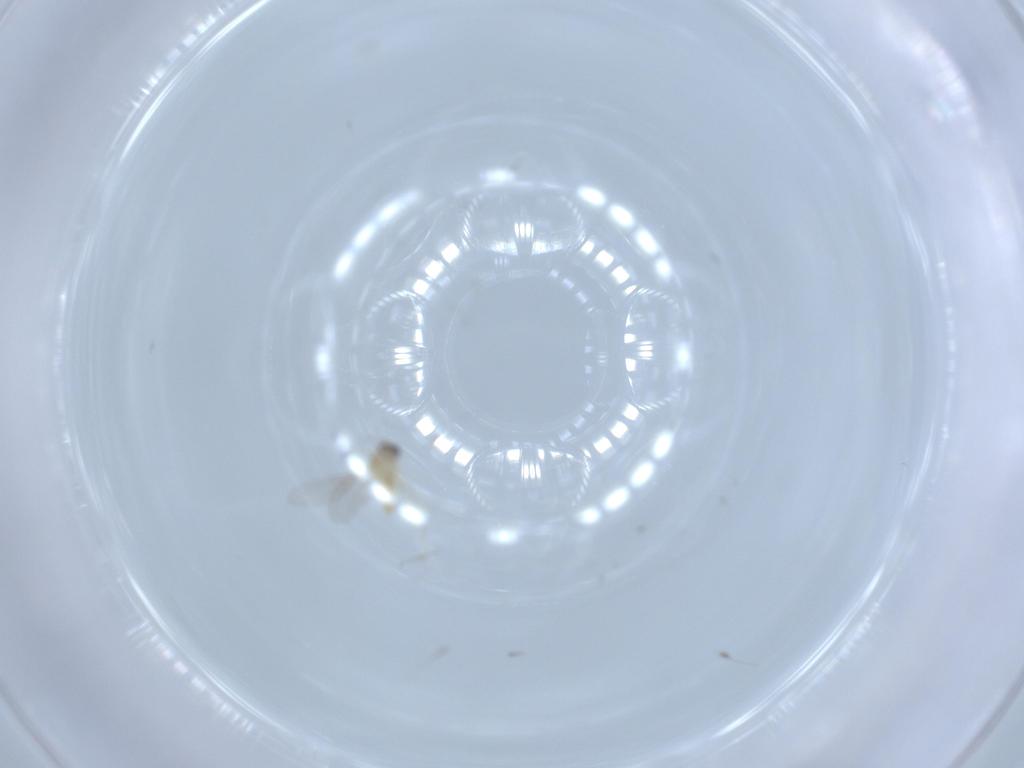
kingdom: Animalia
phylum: Arthropoda
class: Insecta
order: Diptera
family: Cecidomyiidae
